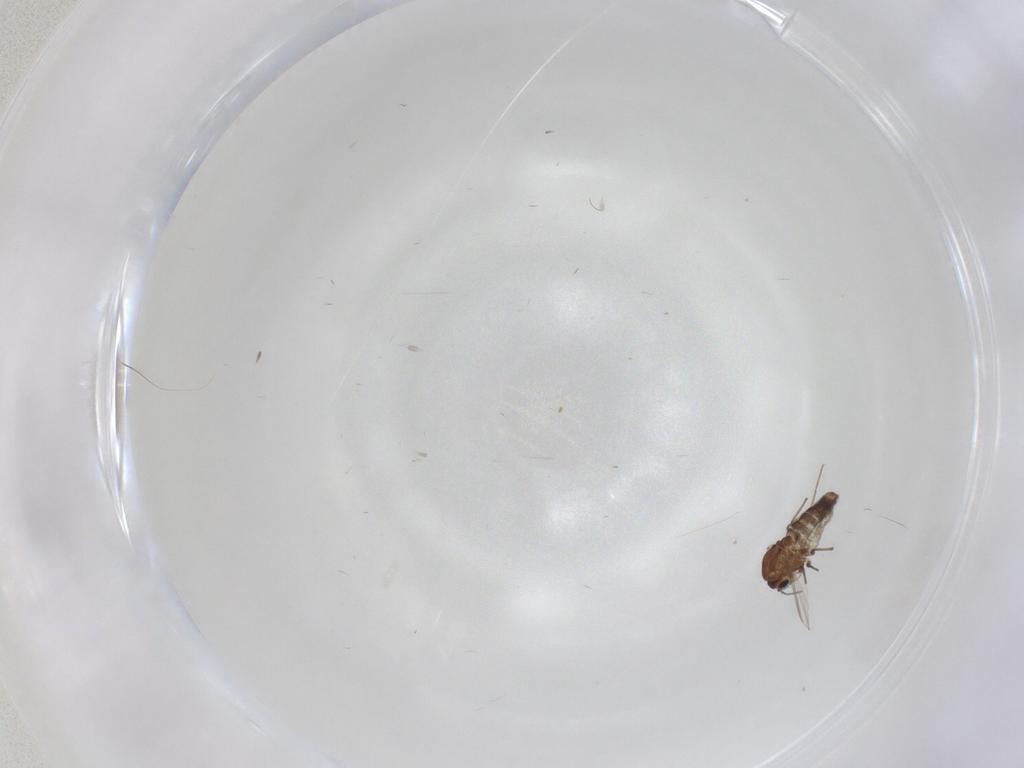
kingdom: Animalia
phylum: Arthropoda
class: Insecta
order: Diptera
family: Chironomidae
